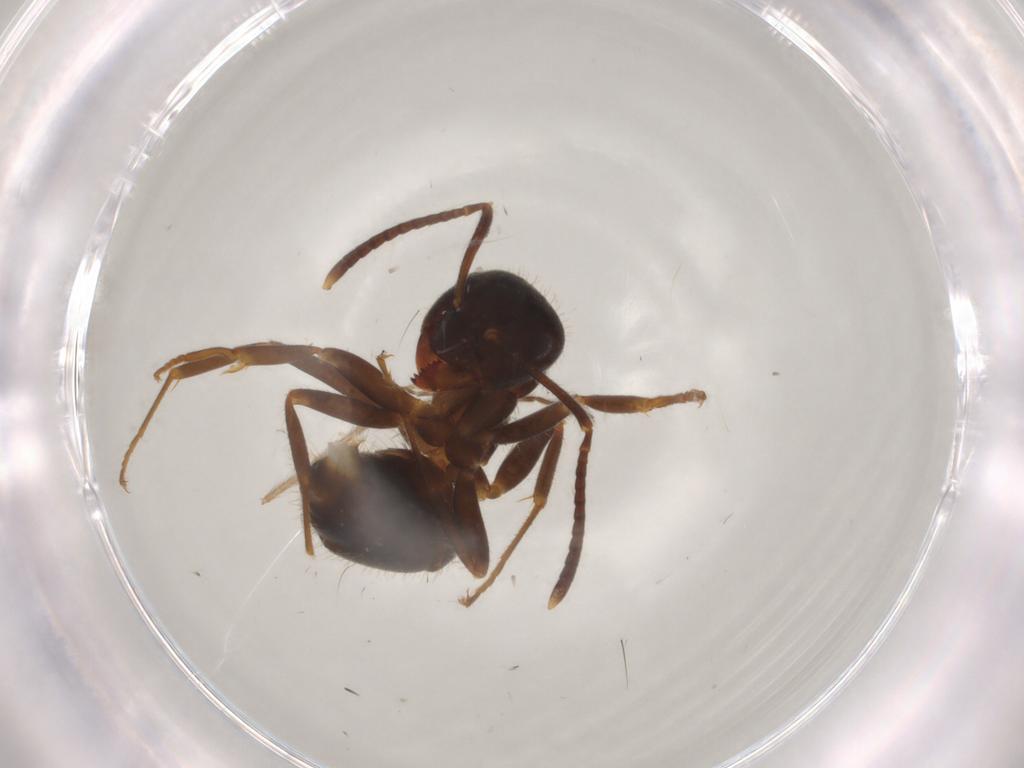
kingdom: Animalia
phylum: Arthropoda
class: Insecta
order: Hymenoptera
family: Formicidae
